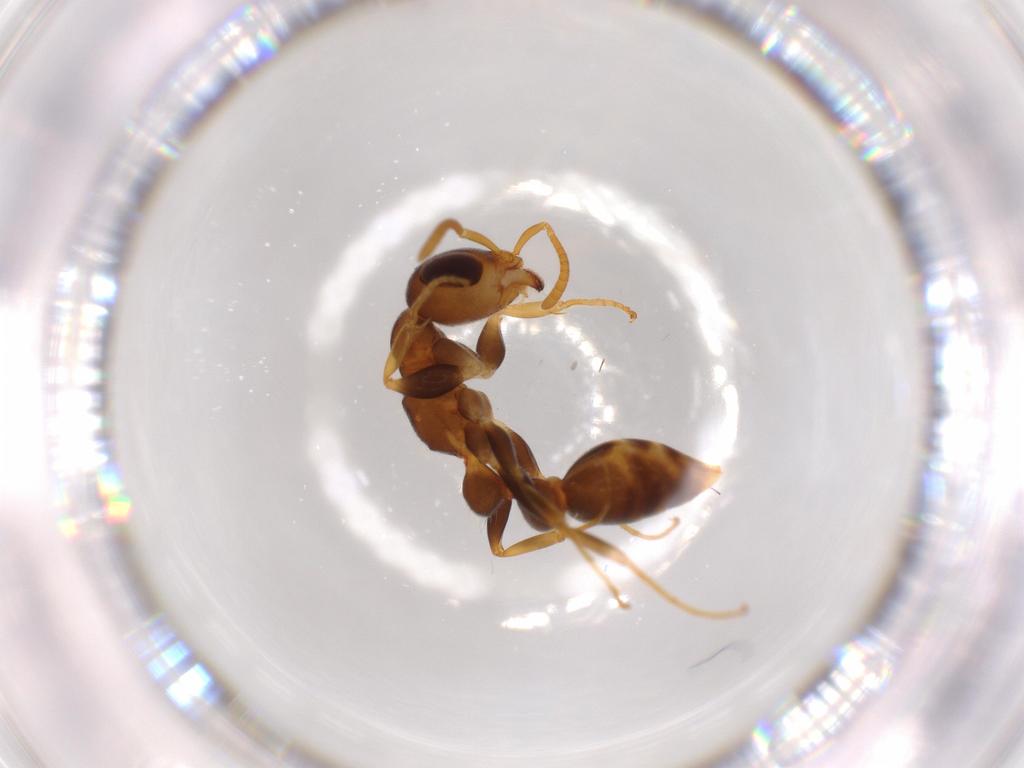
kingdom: Animalia
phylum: Arthropoda
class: Insecta
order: Hymenoptera
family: Formicidae
